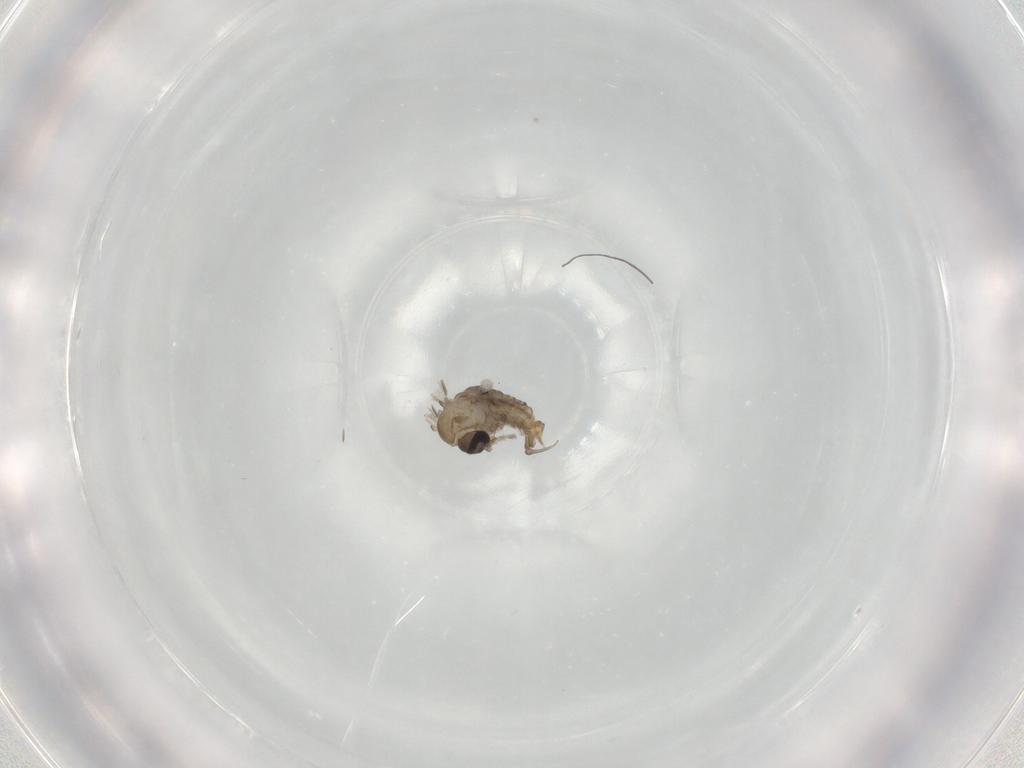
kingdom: Animalia
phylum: Arthropoda
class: Insecta
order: Diptera
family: Psychodidae
